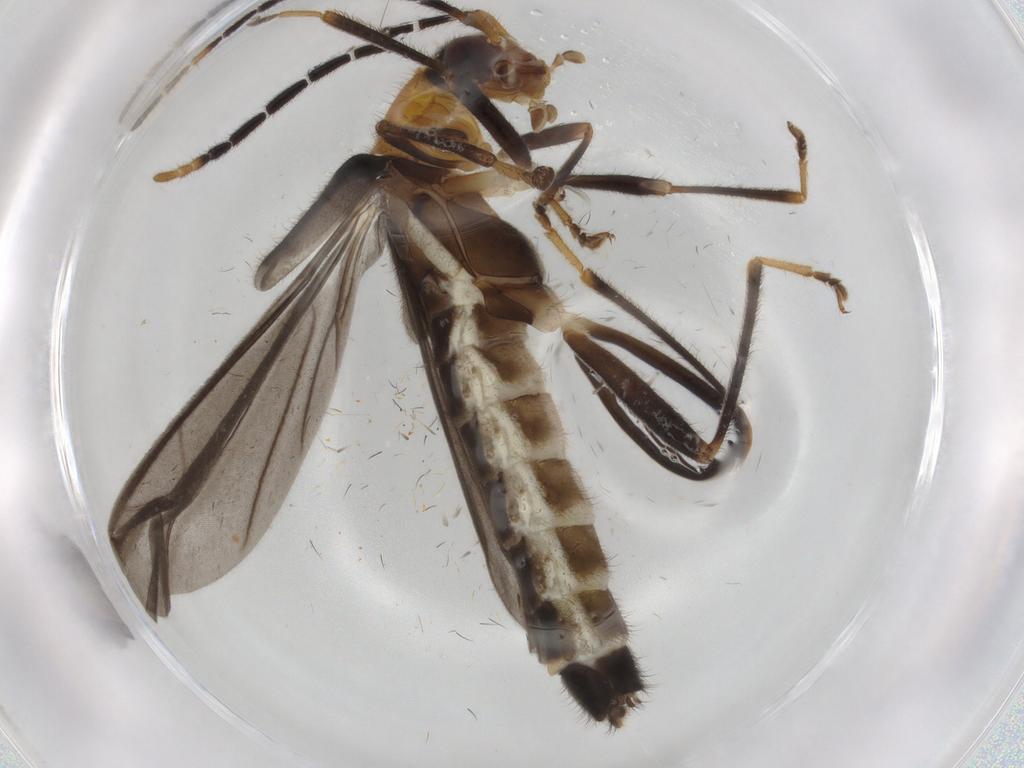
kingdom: Animalia
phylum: Arthropoda
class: Insecta
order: Coleoptera
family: Cantharidae
